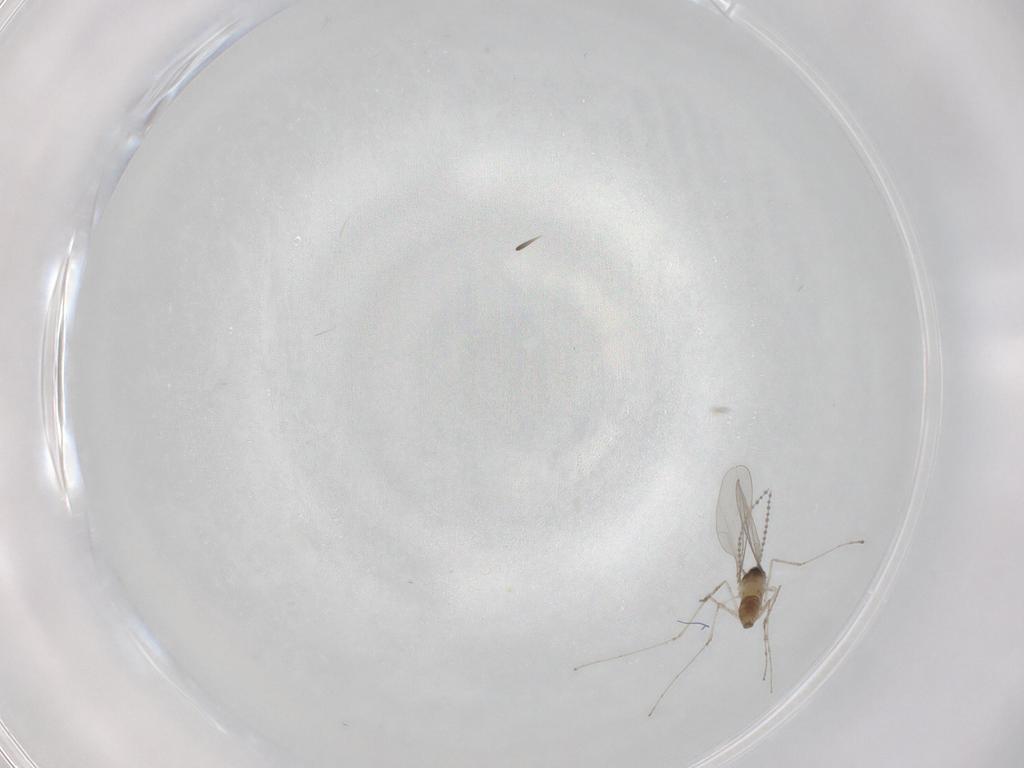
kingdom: Animalia
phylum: Arthropoda
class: Insecta
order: Diptera
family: Cecidomyiidae
